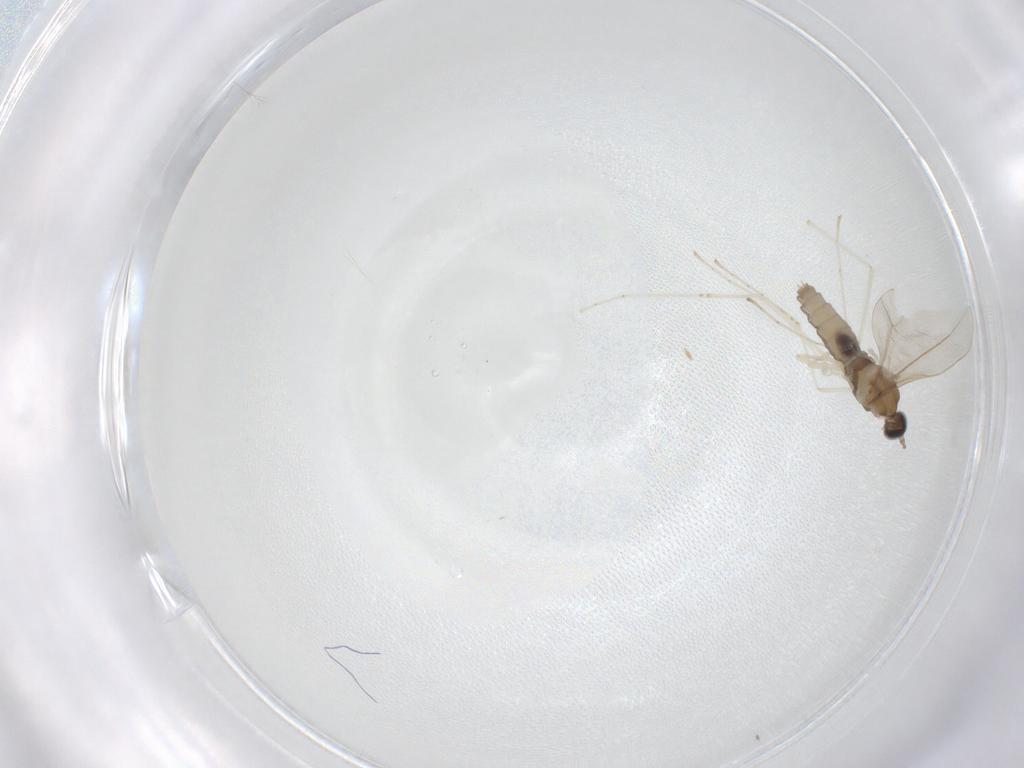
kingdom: Animalia
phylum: Arthropoda
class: Insecta
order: Diptera
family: Cecidomyiidae
